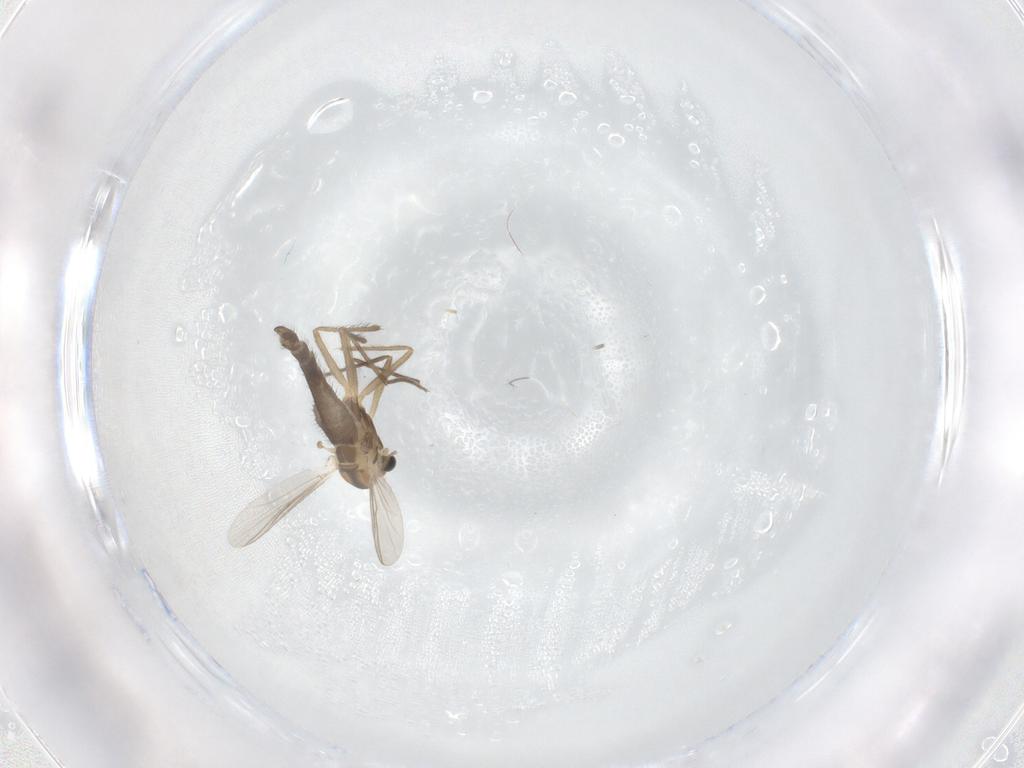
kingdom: Animalia
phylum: Arthropoda
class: Insecta
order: Diptera
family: Chironomidae
